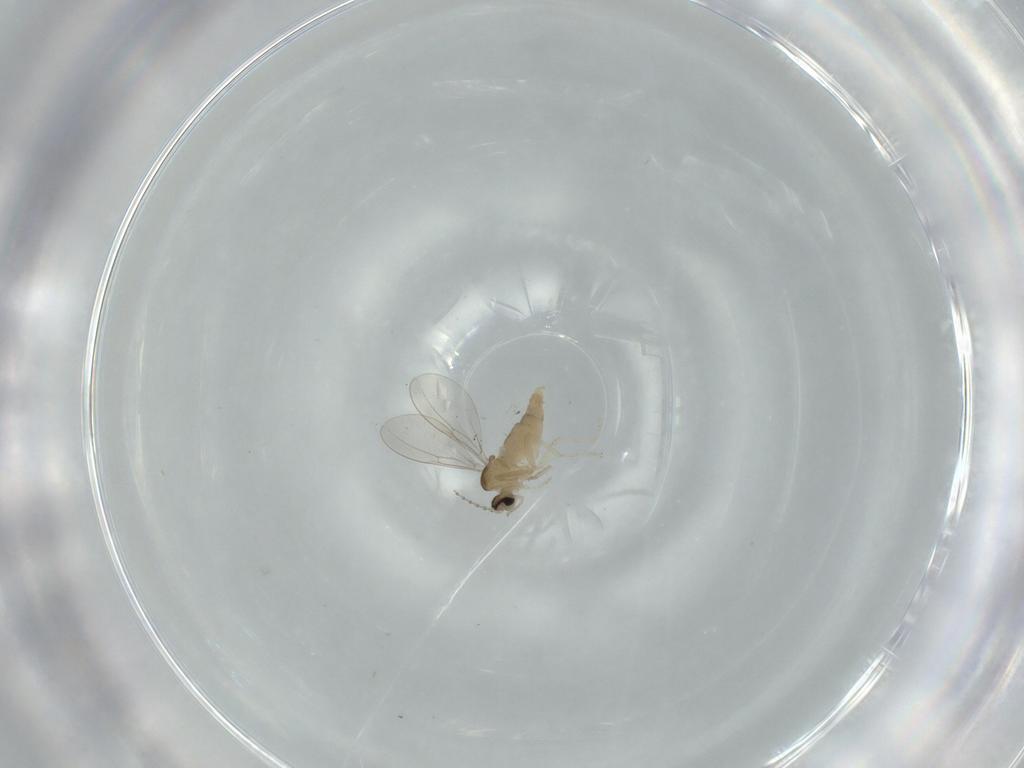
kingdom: Animalia
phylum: Arthropoda
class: Insecta
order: Diptera
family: Cecidomyiidae
